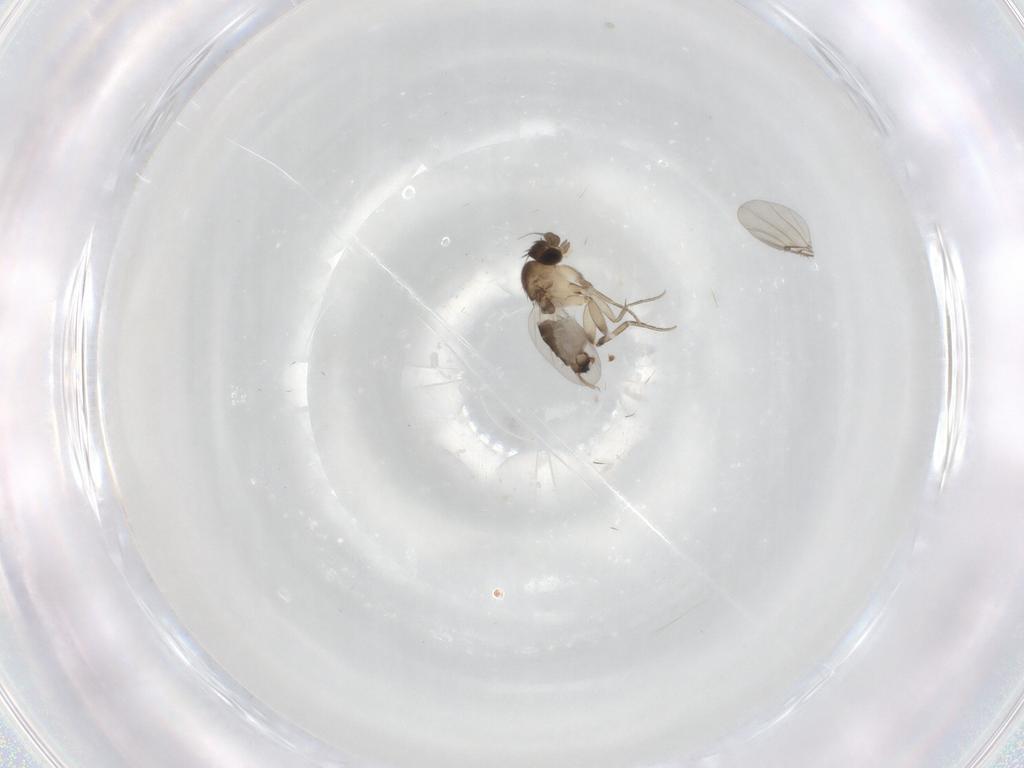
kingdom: Animalia
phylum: Arthropoda
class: Insecta
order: Diptera
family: Phoridae
